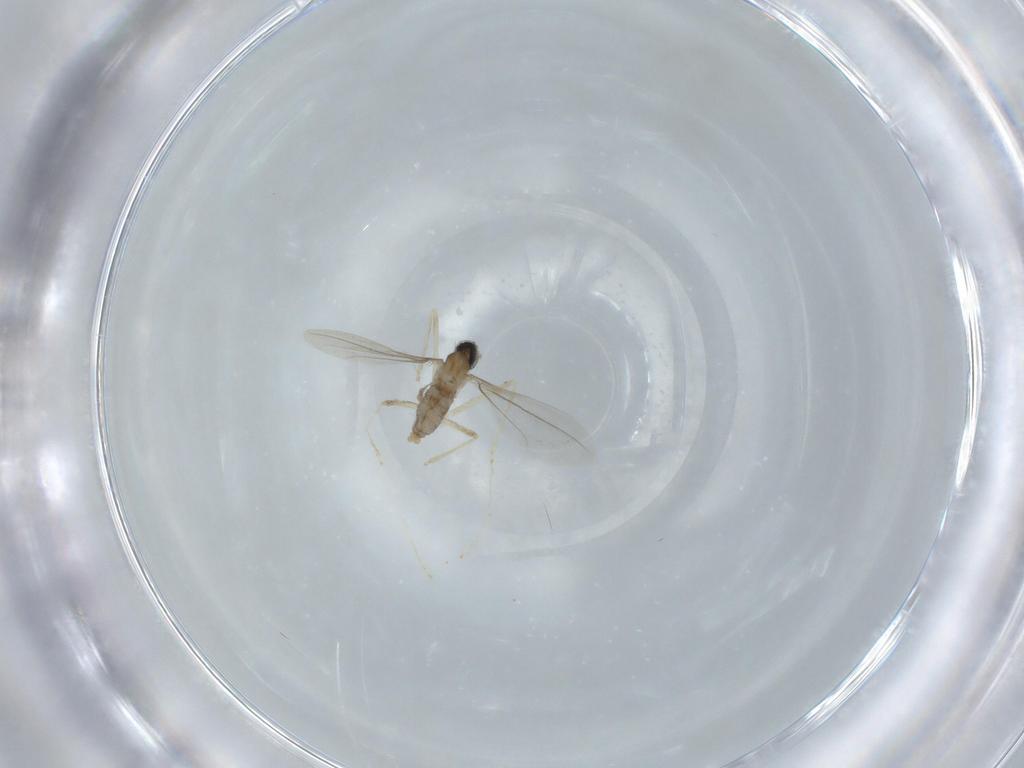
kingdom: Animalia
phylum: Arthropoda
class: Insecta
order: Diptera
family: Cecidomyiidae
